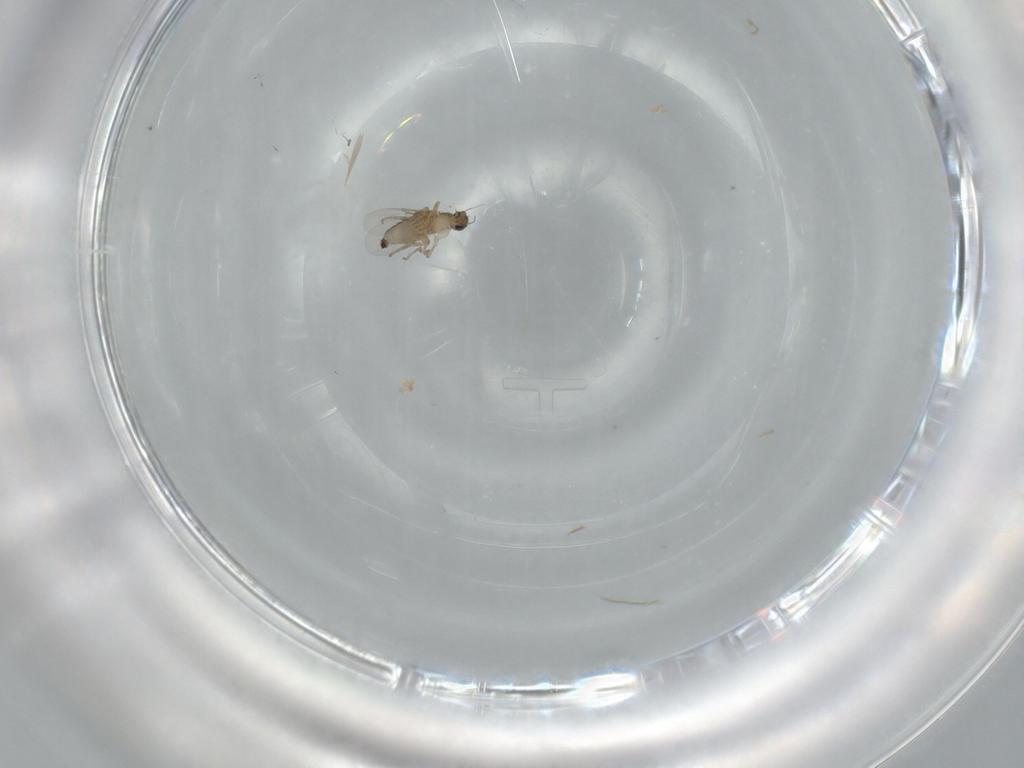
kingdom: Animalia
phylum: Arthropoda
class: Insecta
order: Diptera
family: Phoridae
